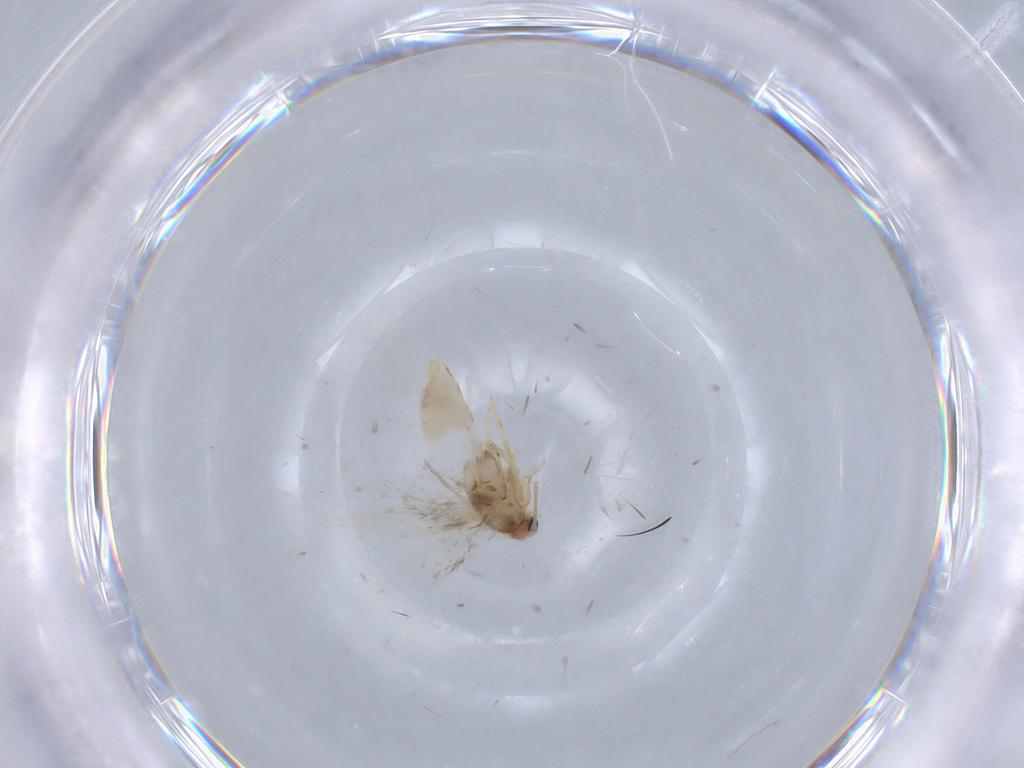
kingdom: Animalia
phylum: Arthropoda
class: Insecta
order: Lepidoptera
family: Nepticulidae
